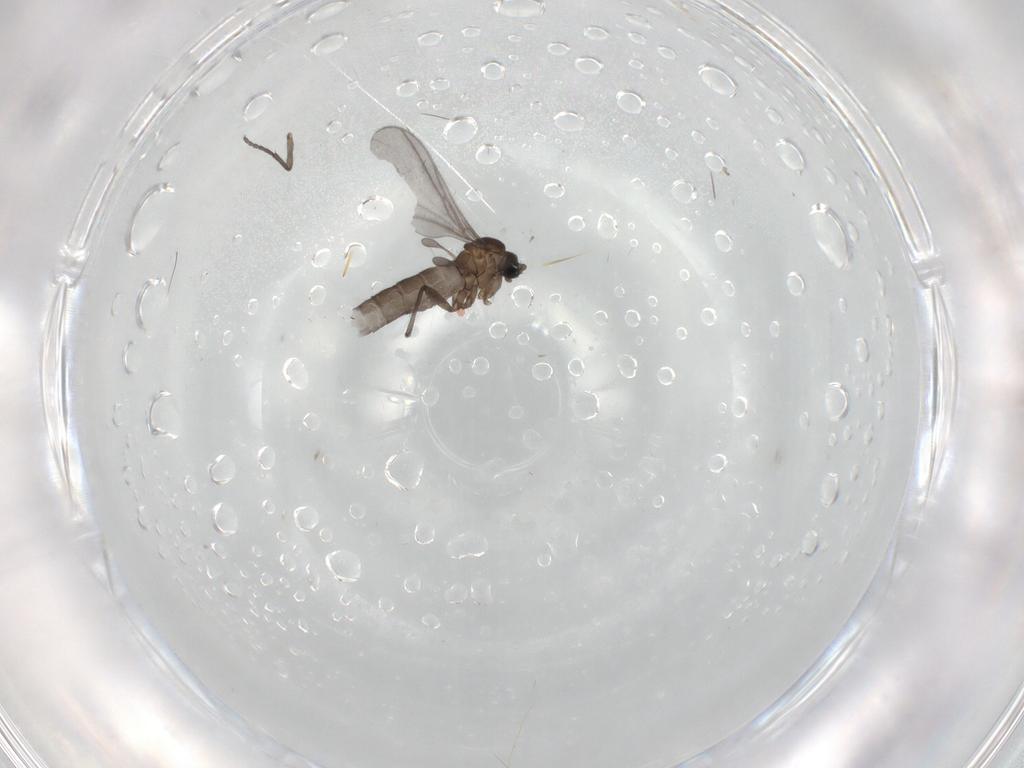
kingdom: Animalia
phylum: Arthropoda
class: Insecta
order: Diptera
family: Sciaridae
